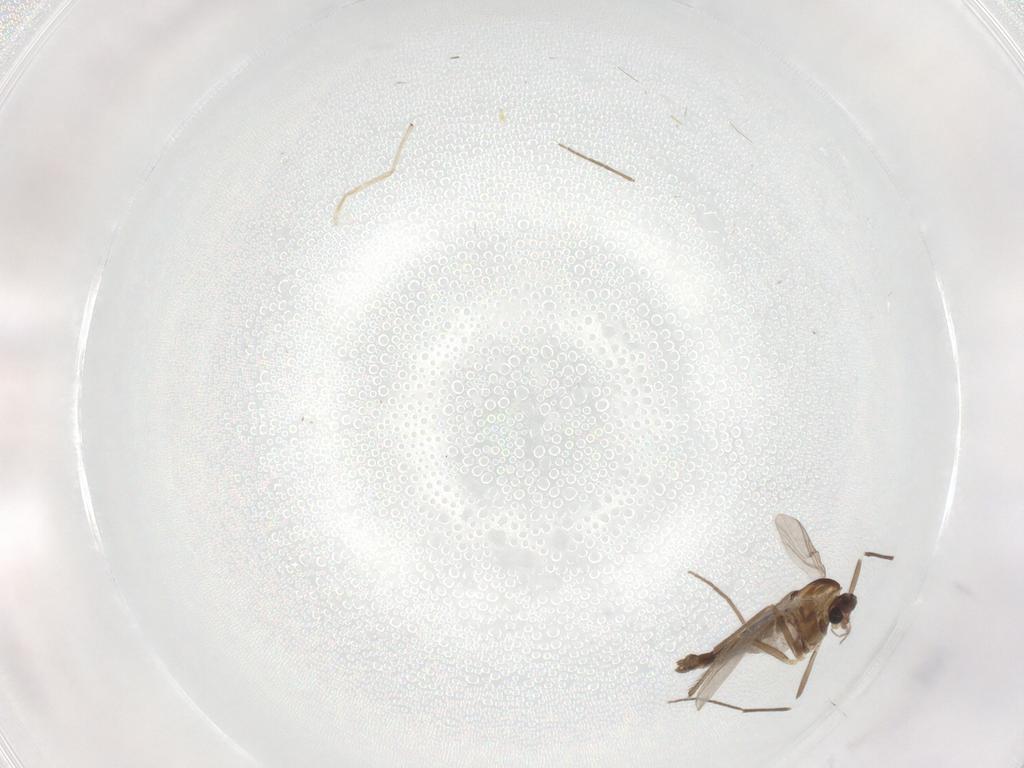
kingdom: Animalia
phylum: Arthropoda
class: Insecta
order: Diptera
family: Chironomidae
